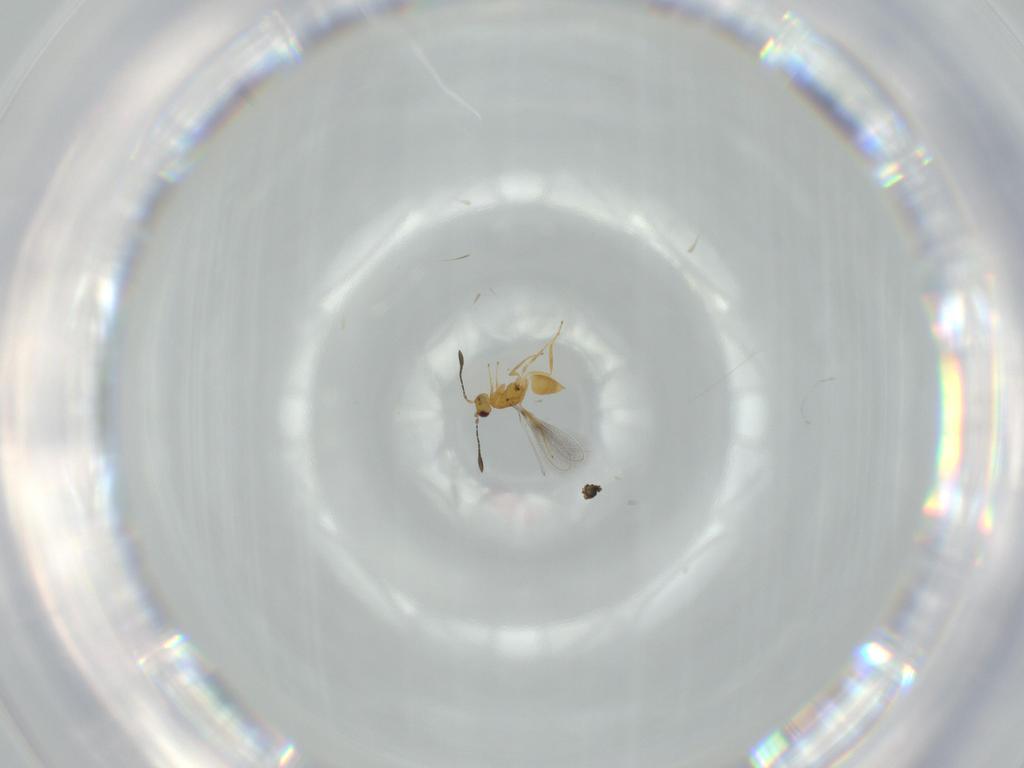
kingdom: Animalia
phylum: Arthropoda
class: Insecta
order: Hymenoptera
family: Mymaridae
